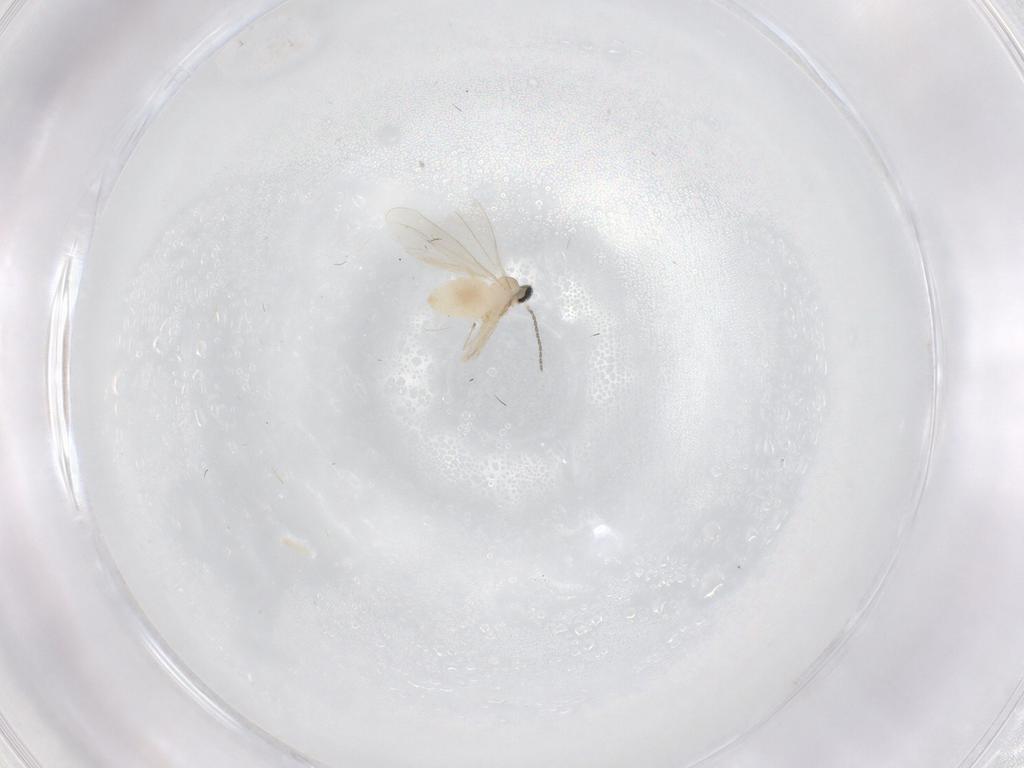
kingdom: Animalia
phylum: Arthropoda
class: Insecta
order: Diptera
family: Cecidomyiidae
